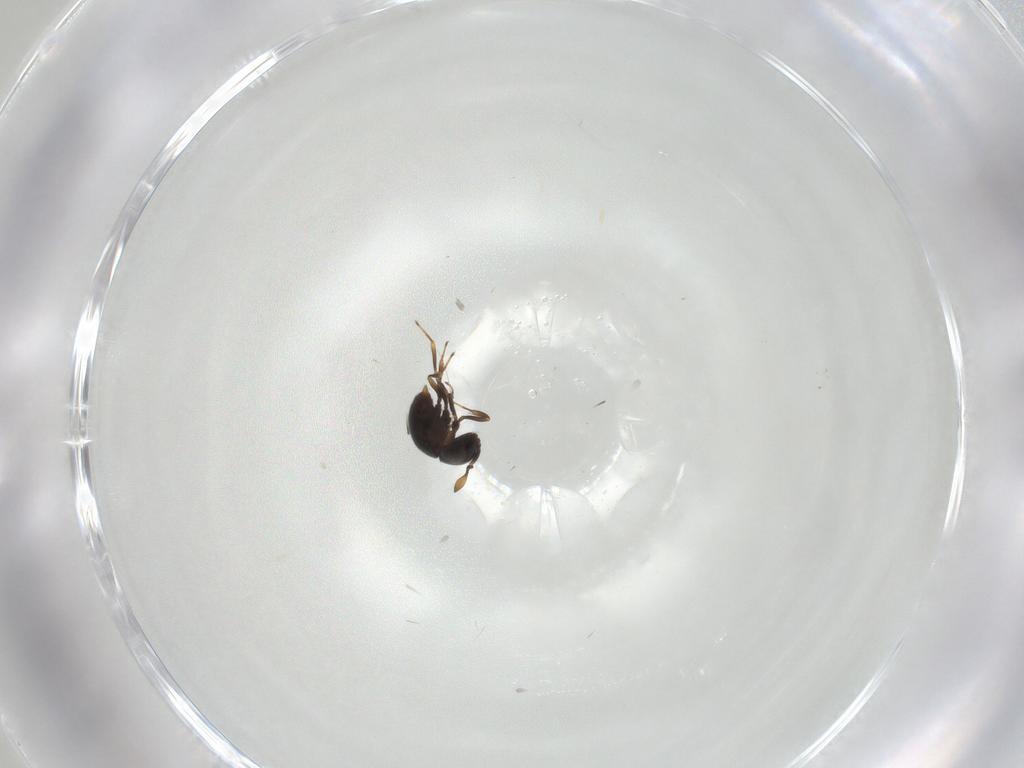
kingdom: Animalia
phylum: Arthropoda
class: Insecta
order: Hymenoptera
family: Scelionidae
